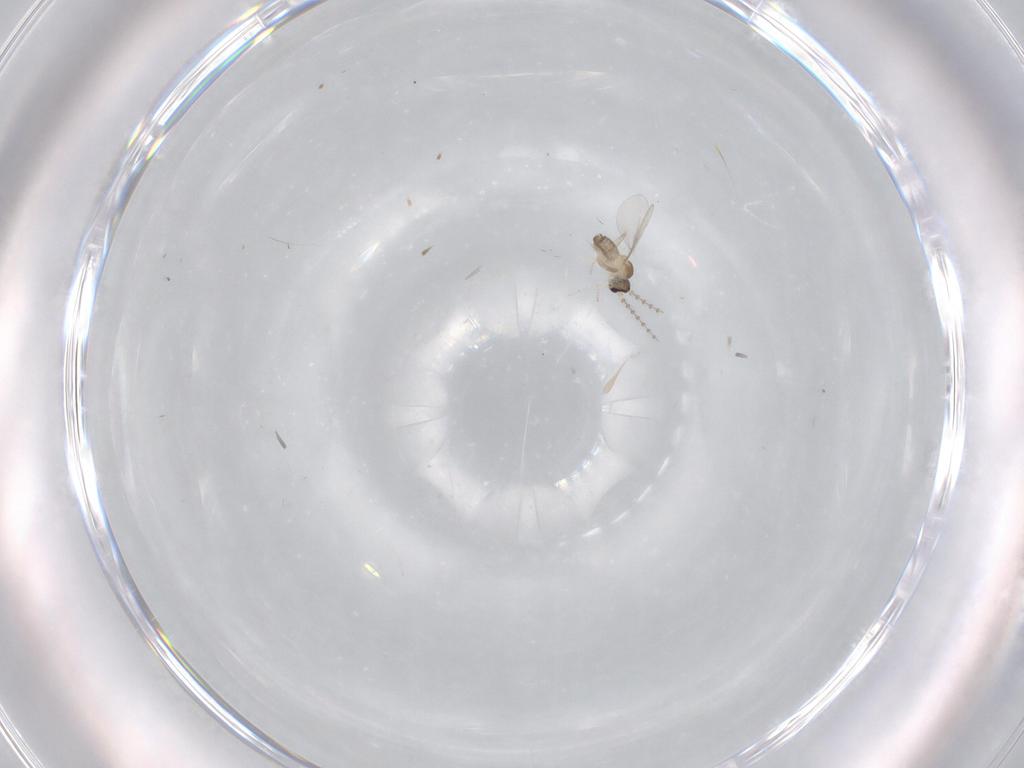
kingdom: Animalia
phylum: Arthropoda
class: Insecta
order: Diptera
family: Cecidomyiidae
